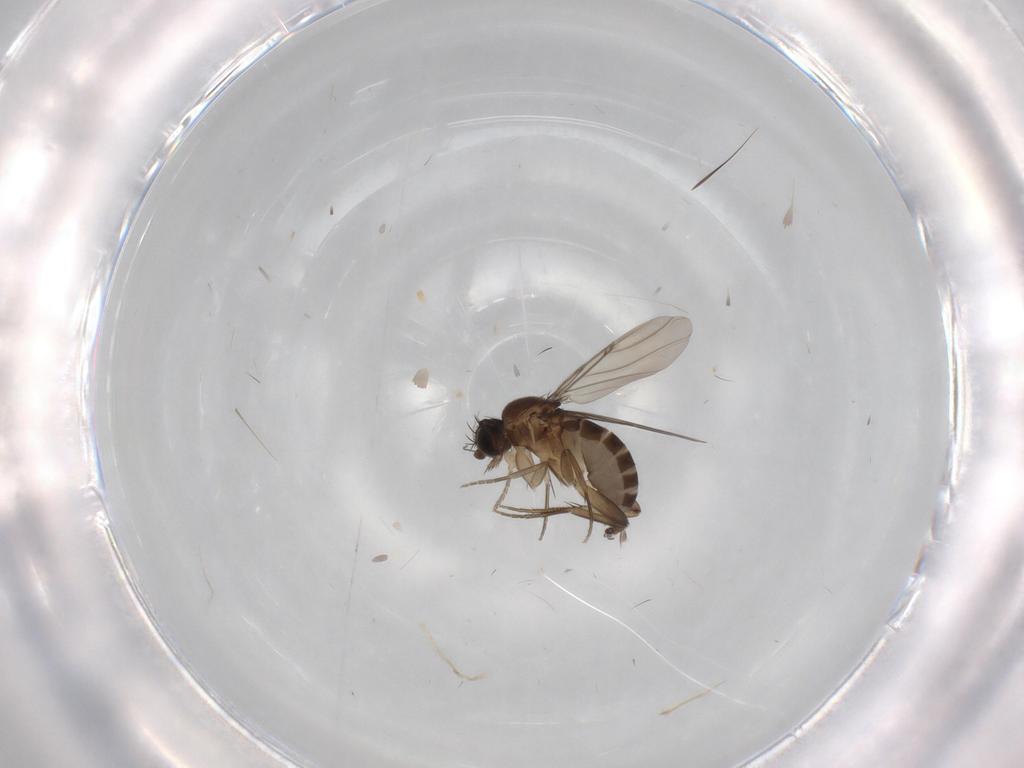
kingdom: Animalia
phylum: Arthropoda
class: Insecta
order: Diptera
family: Phoridae
